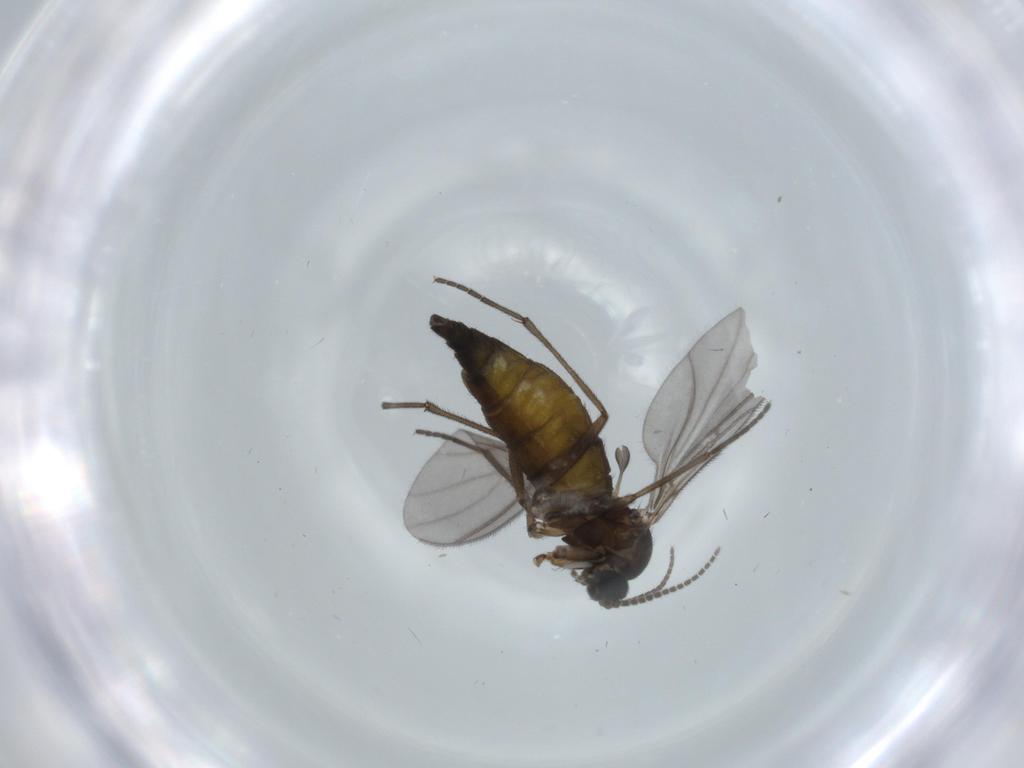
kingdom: Animalia
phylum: Arthropoda
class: Insecta
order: Diptera
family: Sciaridae
